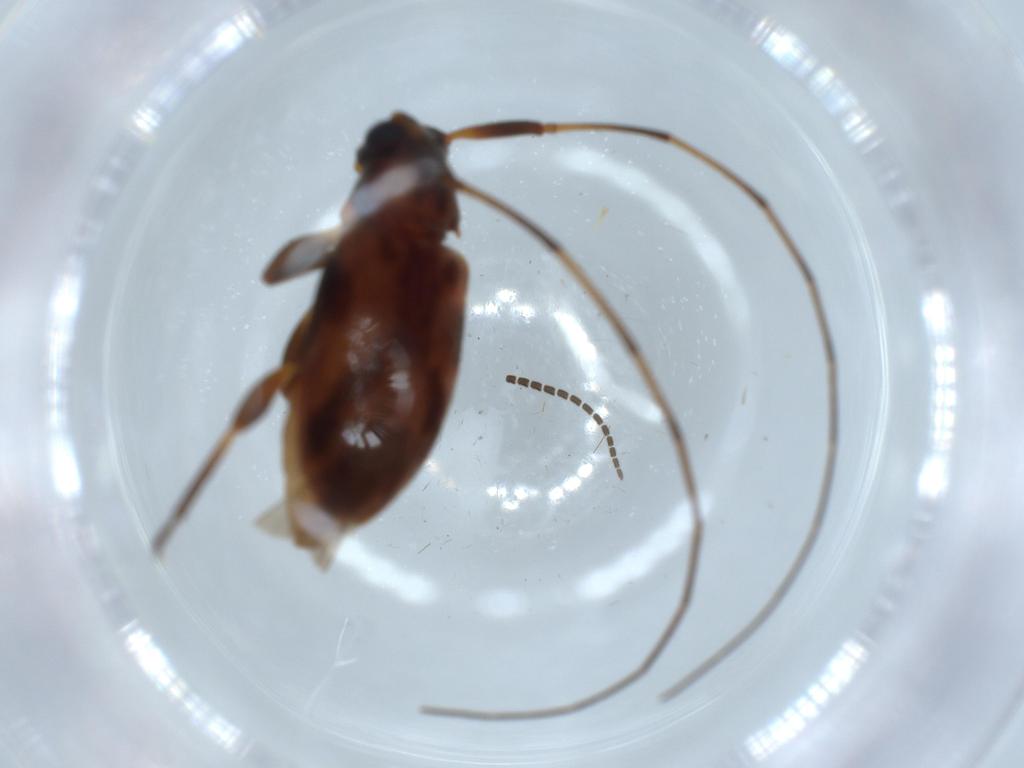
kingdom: Animalia
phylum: Arthropoda
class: Insecta
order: Coleoptera
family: Cerambycidae
